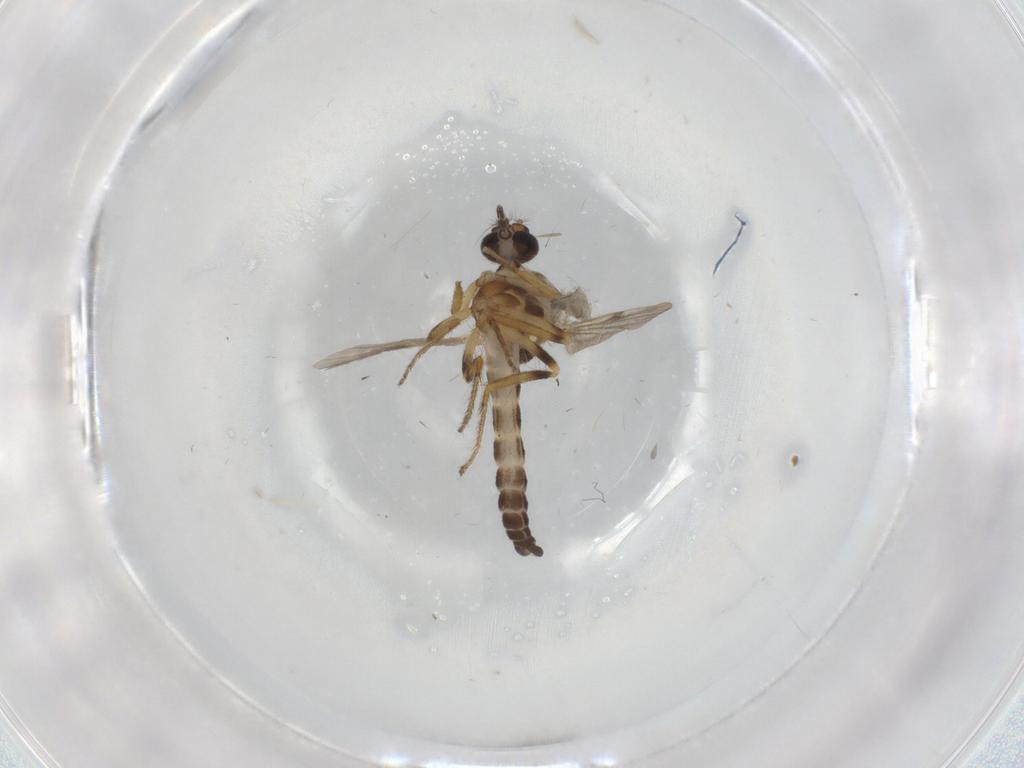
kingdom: Animalia
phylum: Arthropoda
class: Insecta
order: Diptera
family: Ceratopogonidae
